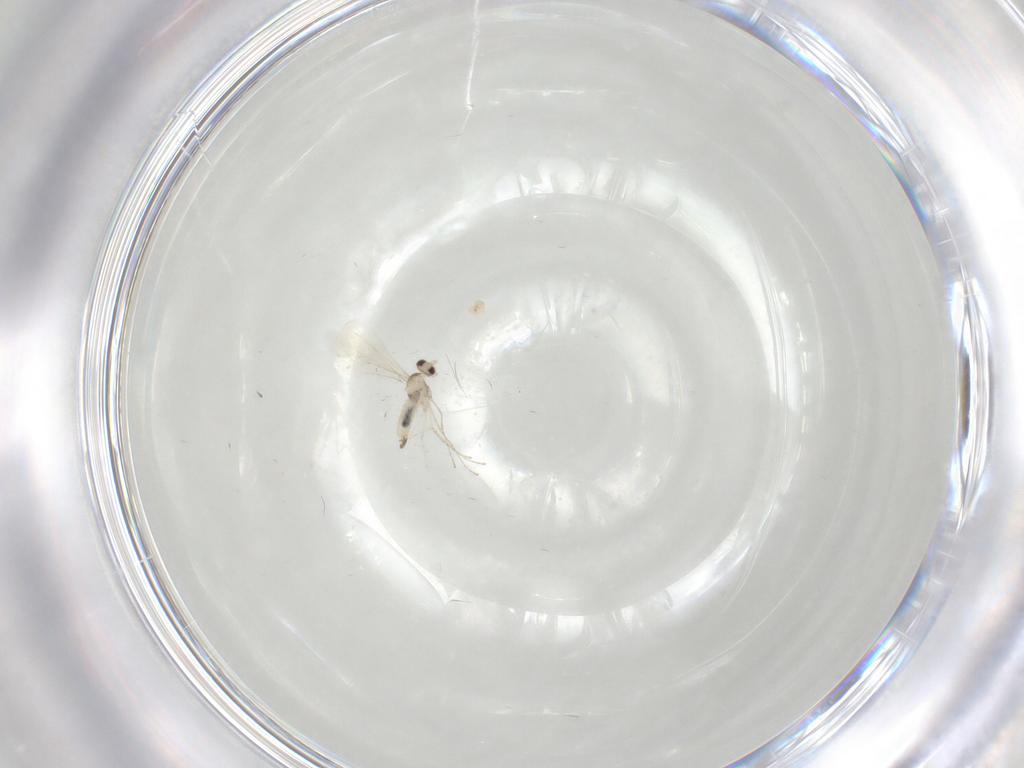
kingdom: Animalia
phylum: Arthropoda
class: Insecta
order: Diptera
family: Cecidomyiidae
